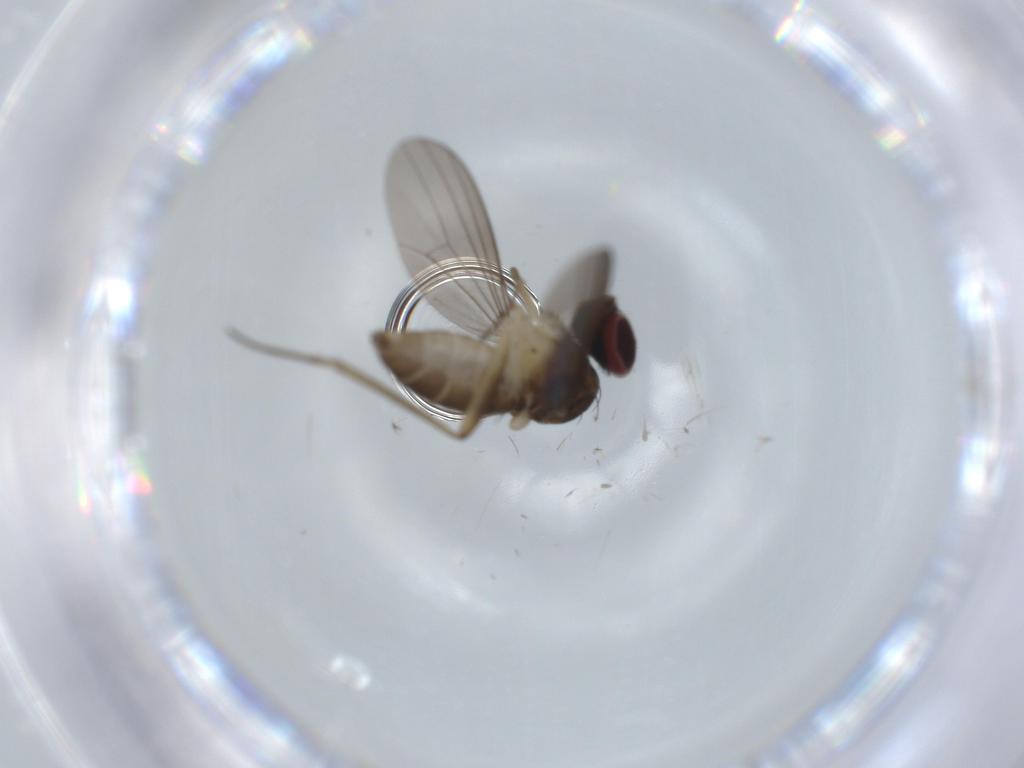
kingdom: Animalia
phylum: Arthropoda
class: Insecta
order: Diptera
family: Dolichopodidae
